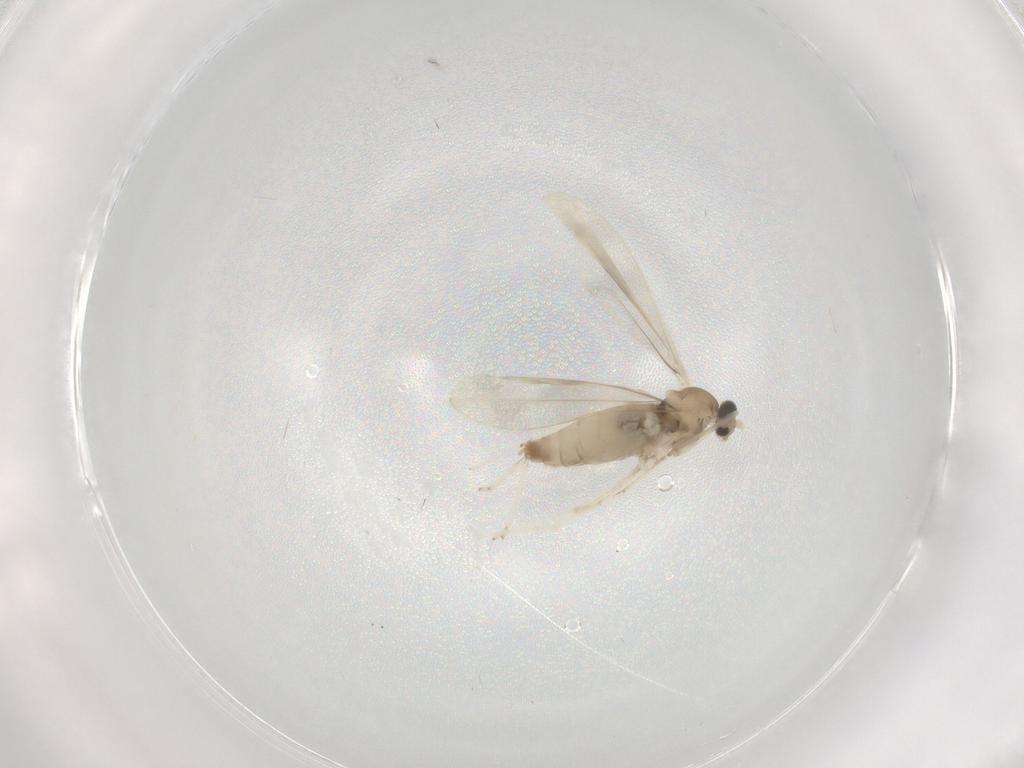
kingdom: Animalia
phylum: Arthropoda
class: Insecta
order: Diptera
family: Cecidomyiidae
